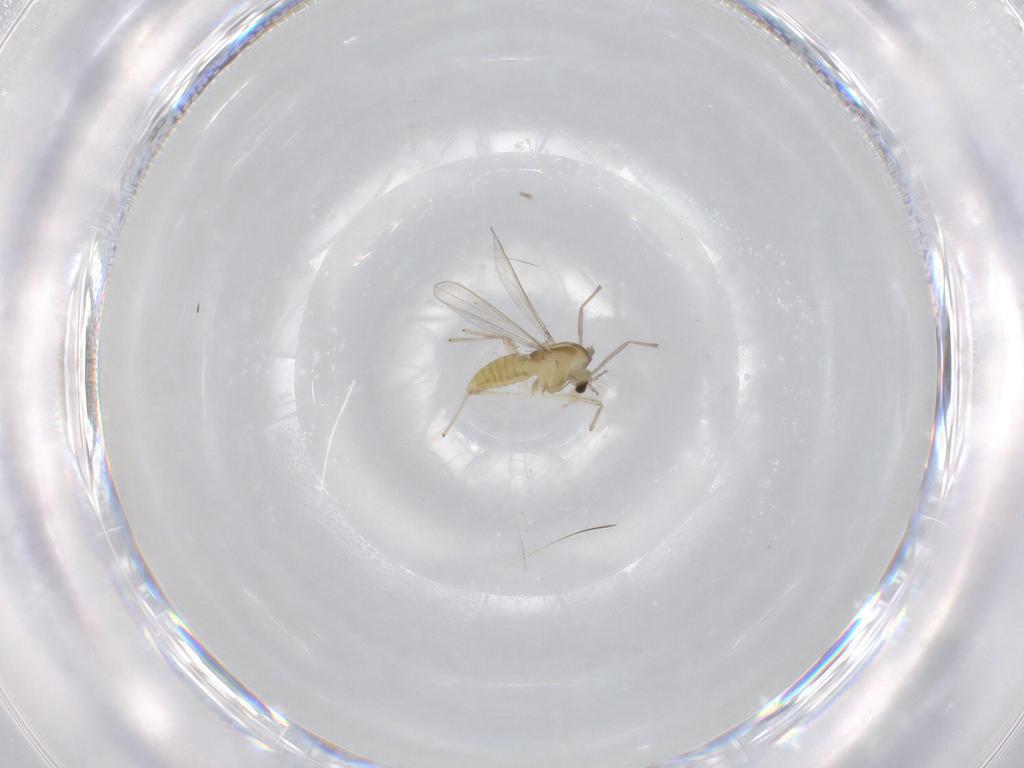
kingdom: Animalia
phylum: Arthropoda
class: Insecta
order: Diptera
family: Chironomidae
